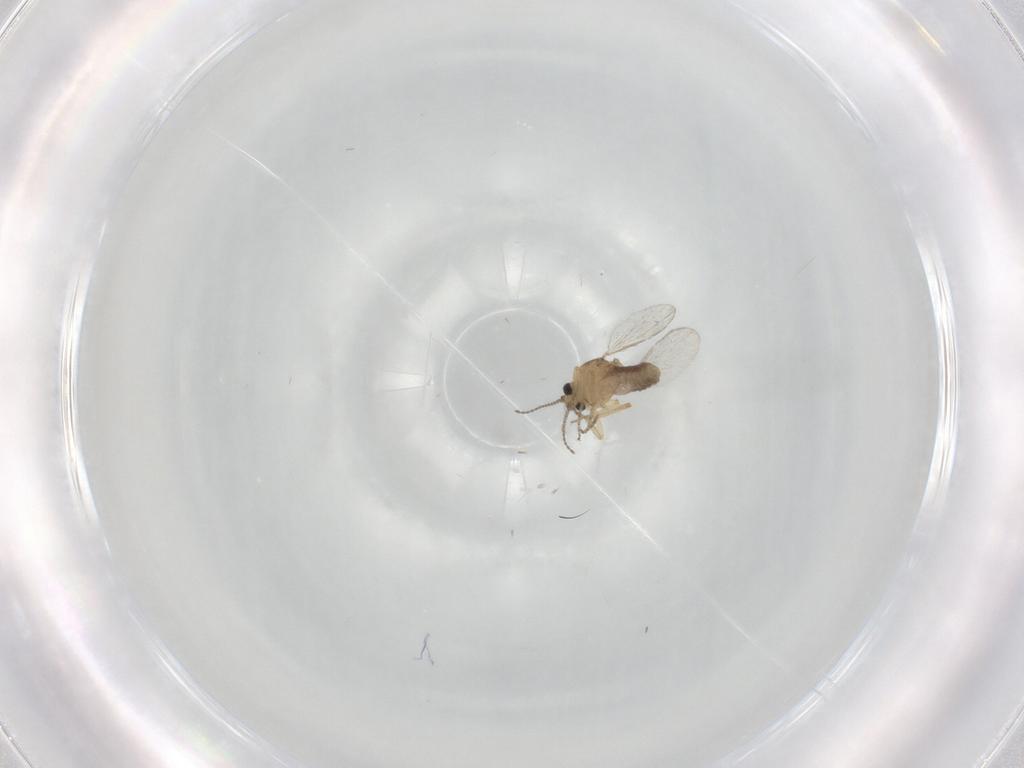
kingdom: Animalia
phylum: Arthropoda
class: Insecta
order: Diptera
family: Ceratopogonidae
